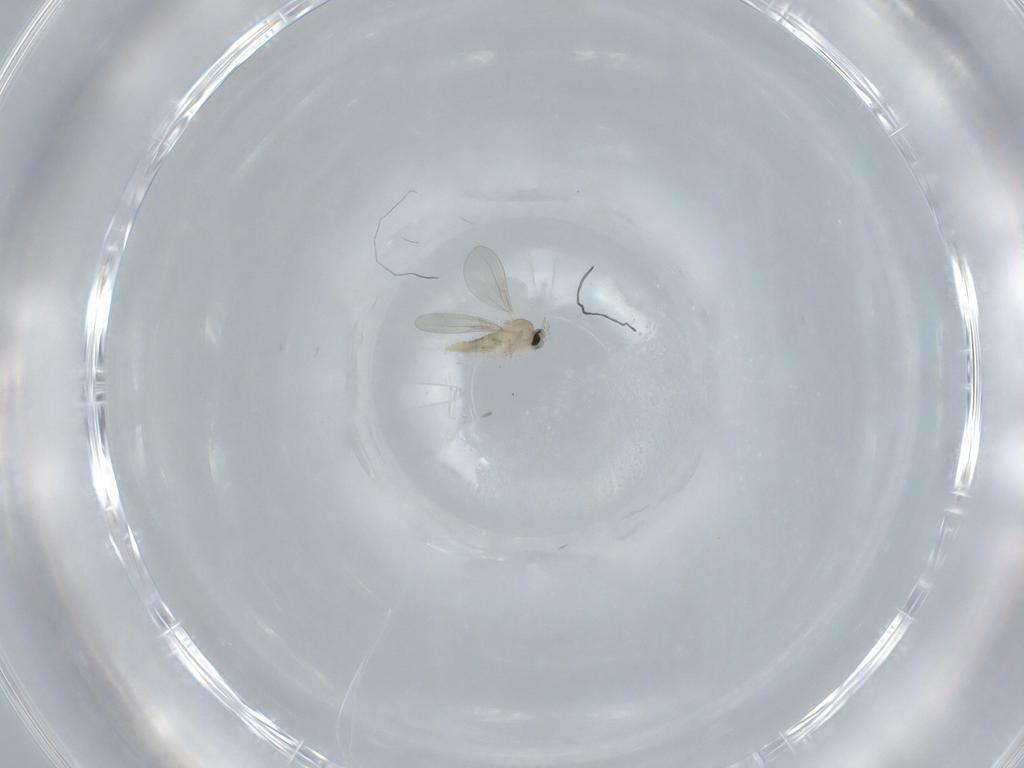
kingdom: Animalia
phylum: Arthropoda
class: Insecta
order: Diptera
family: Cecidomyiidae
